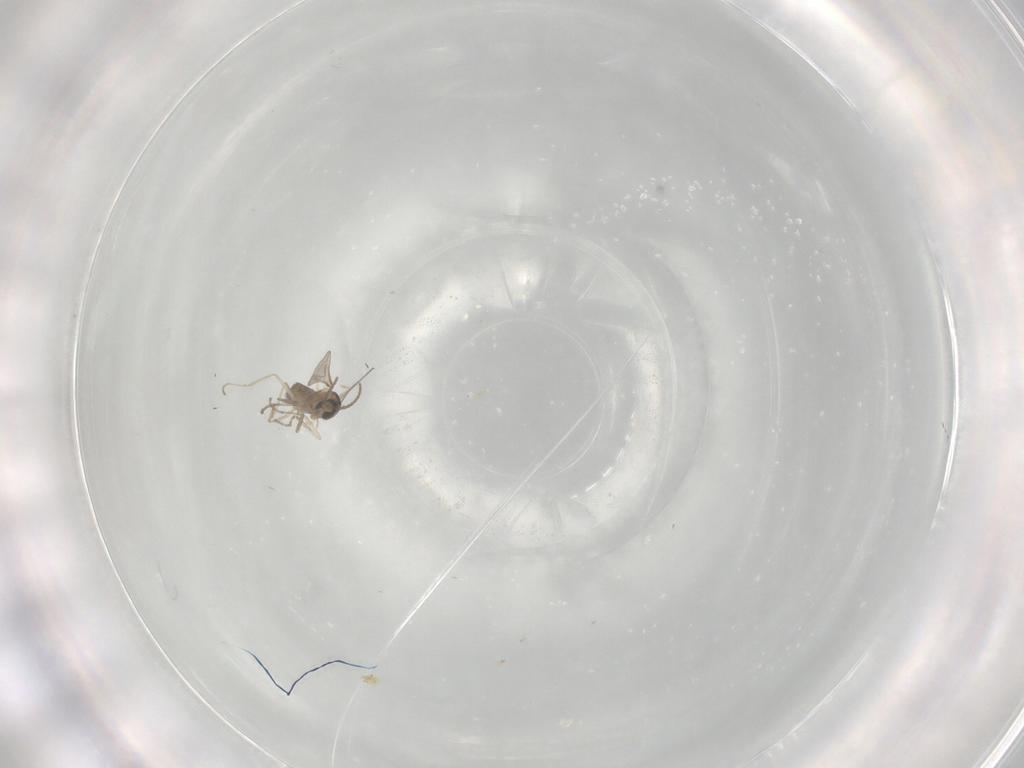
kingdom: Animalia
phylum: Arthropoda
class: Insecta
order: Diptera
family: Cecidomyiidae
